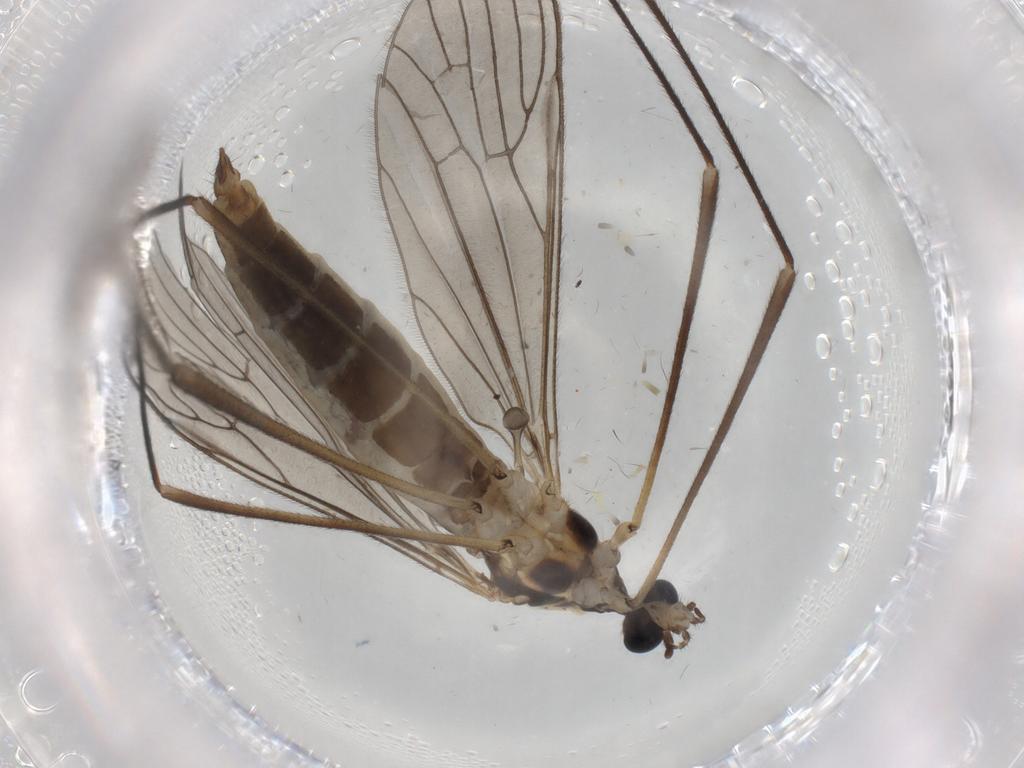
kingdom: Animalia
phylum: Arthropoda
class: Insecta
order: Diptera
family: Limoniidae
